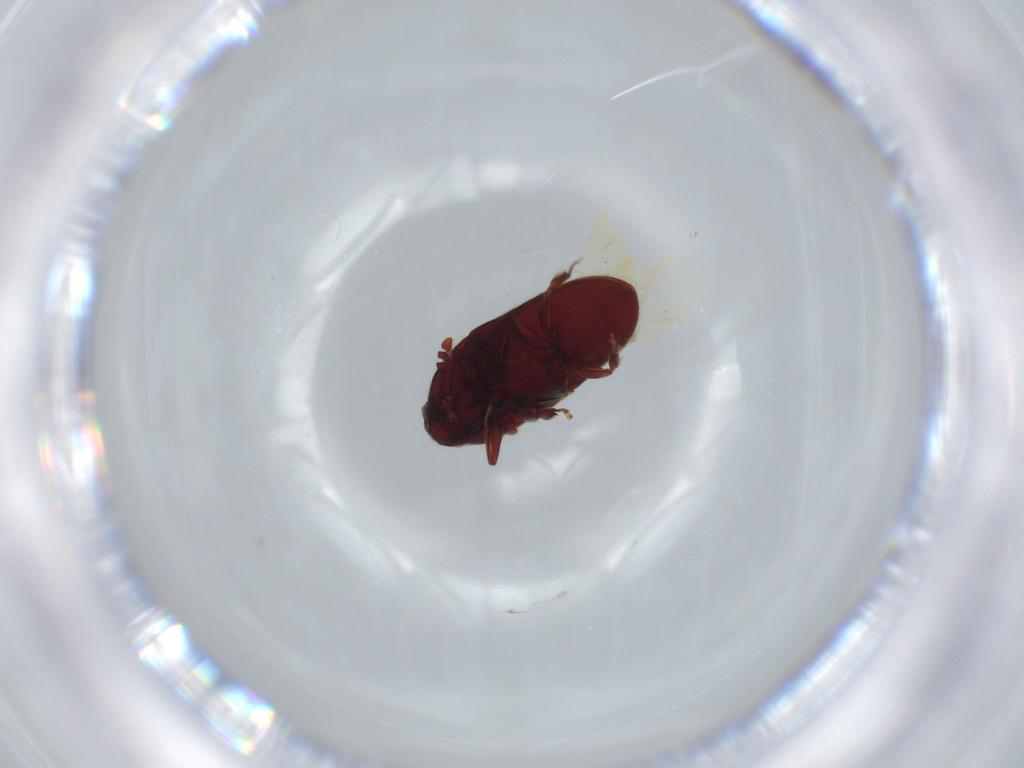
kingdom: Animalia
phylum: Arthropoda
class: Insecta
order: Coleoptera
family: Throscidae
